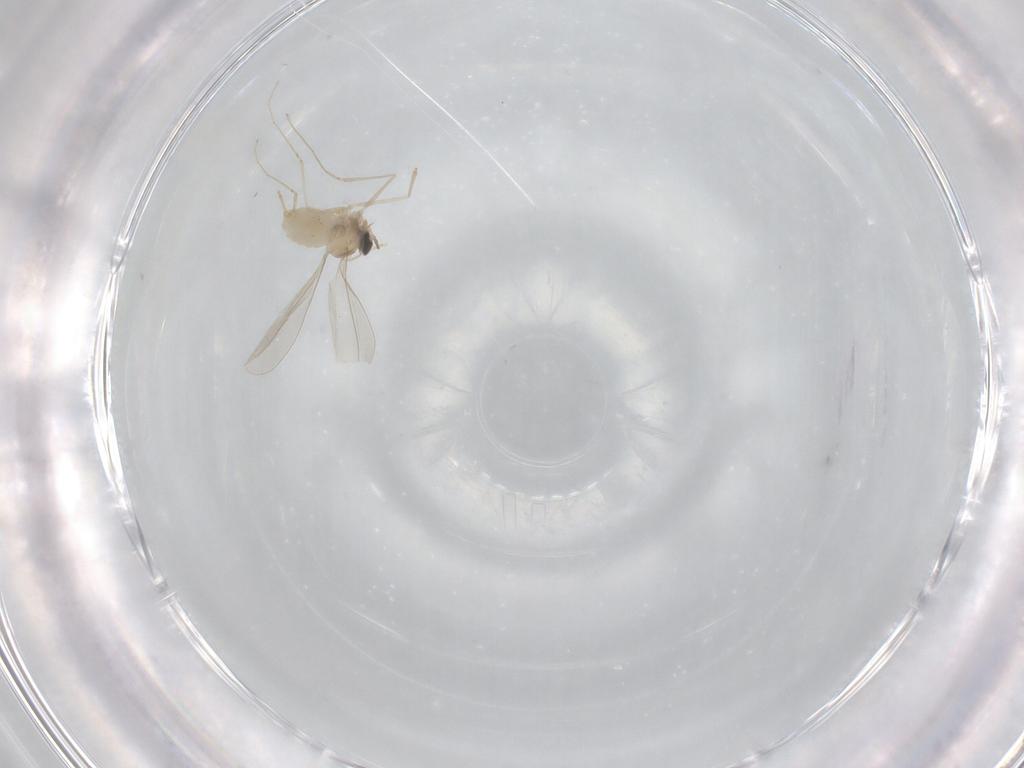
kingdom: Animalia
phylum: Arthropoda
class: Insecta
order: Diptera
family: Cecidomyiidae
